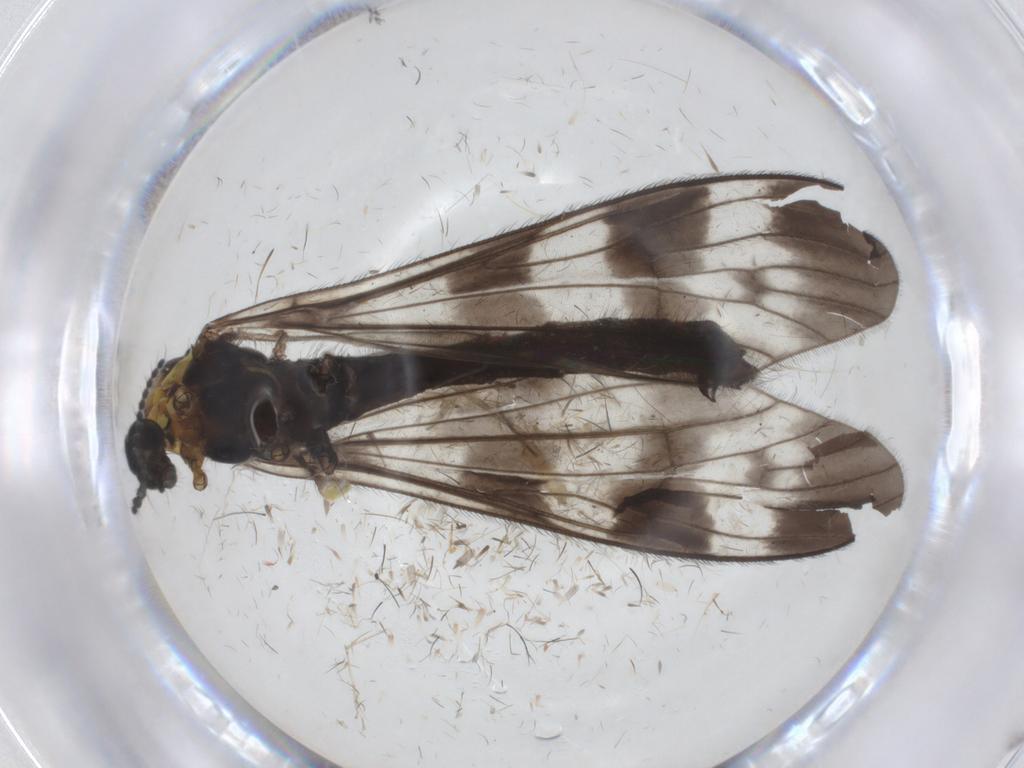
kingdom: Animalia
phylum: Arthropoda
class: Insecta
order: Diptera
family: Limoniidae
